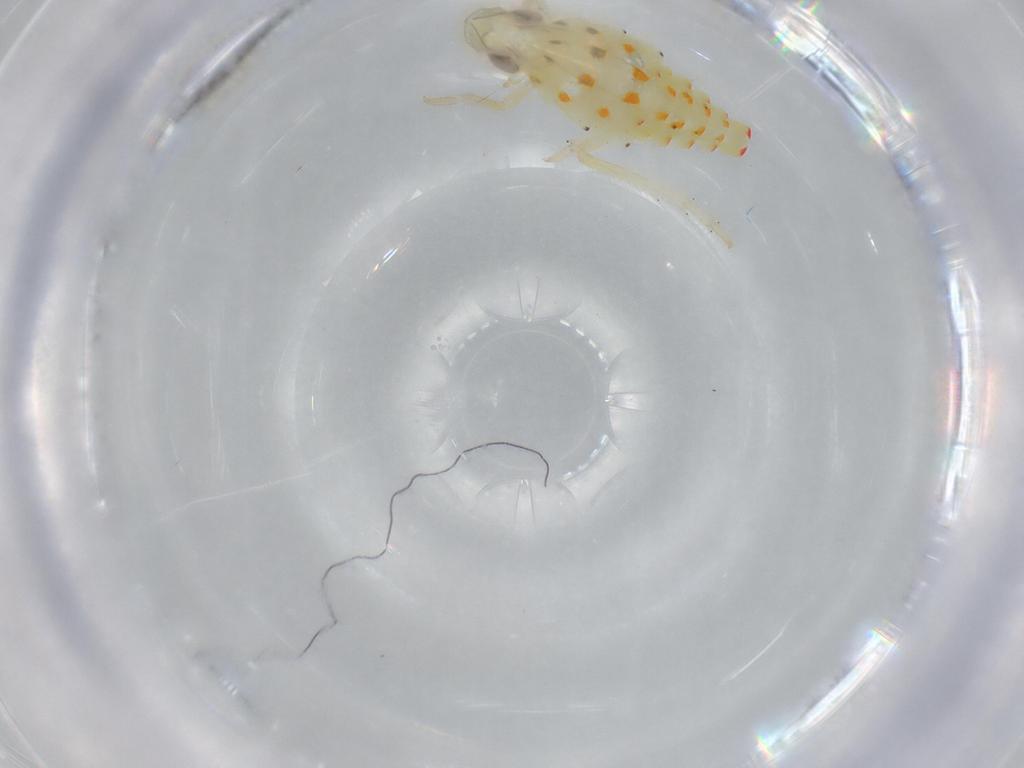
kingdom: Animalia
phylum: Arthropoda
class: Insecta
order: Hemiptera
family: Tropiduchidae
